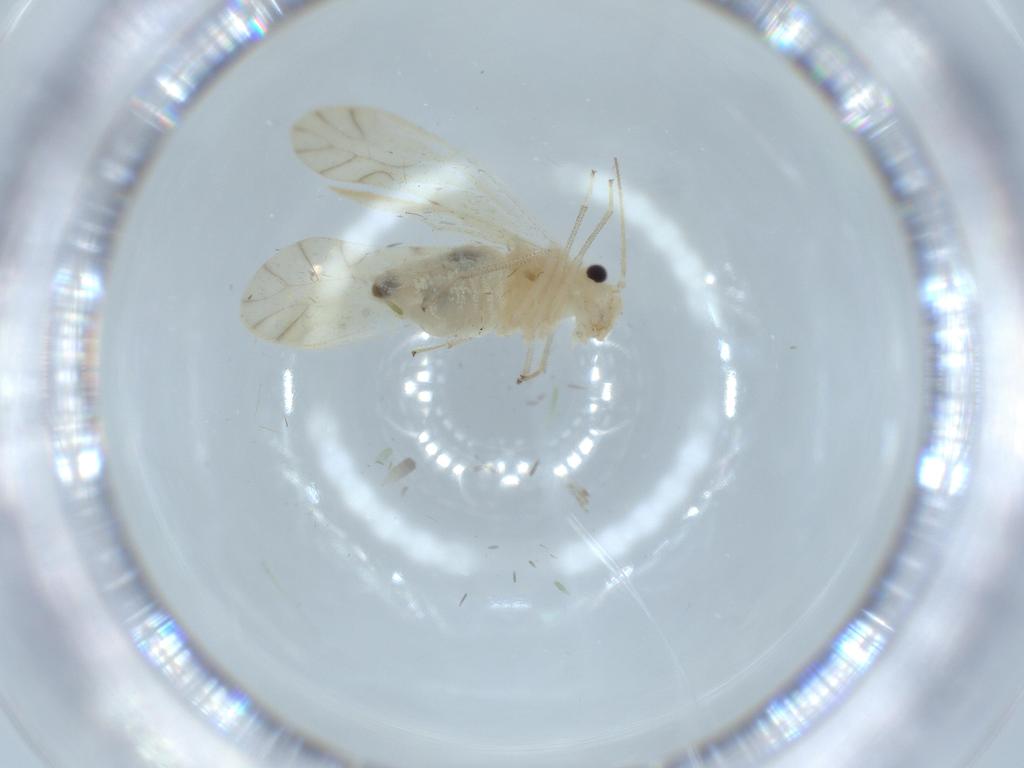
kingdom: Animalia
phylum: Arthropoda
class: Insecta
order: Psocodea
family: Caeciliusidae
